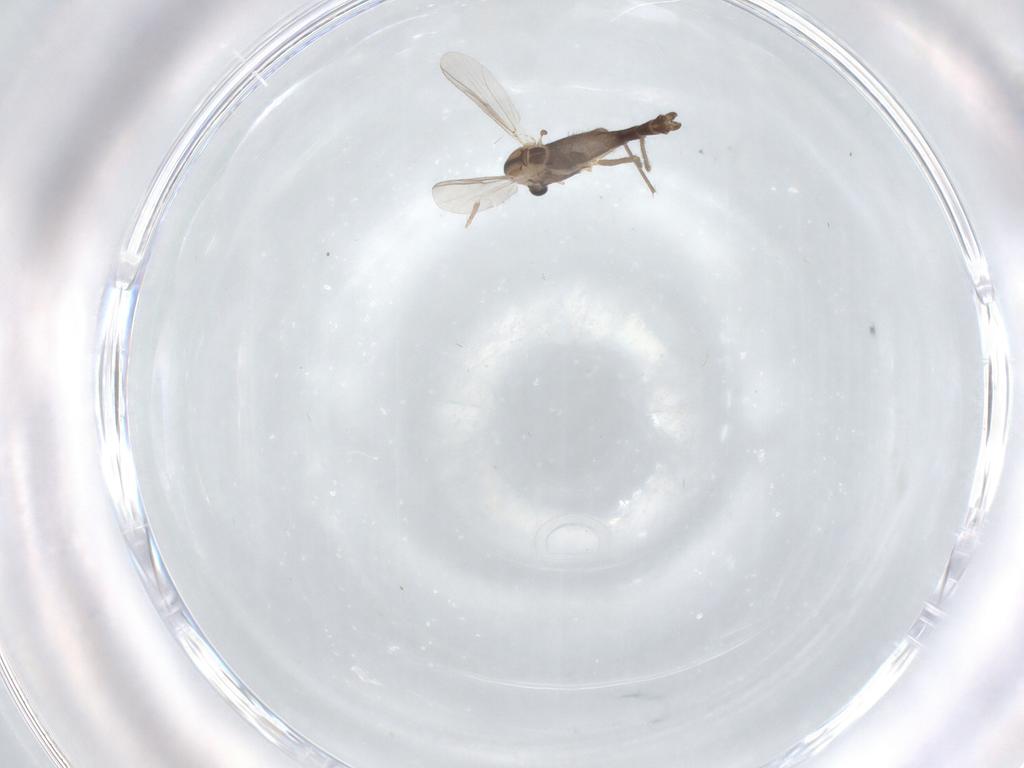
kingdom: Animalia
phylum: Arthropoda
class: Insecta
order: Diptera
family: Chironomidae
